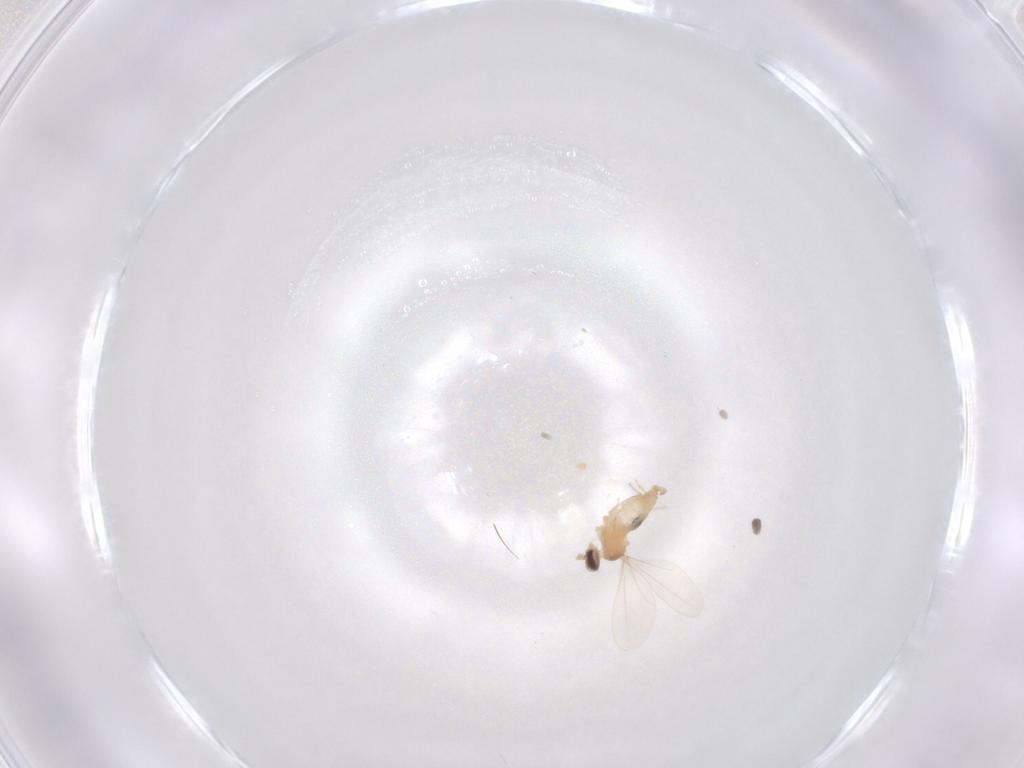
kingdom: Animalia
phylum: Arthropoda
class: Insecta
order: Diptera
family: Cecidomyiidae
